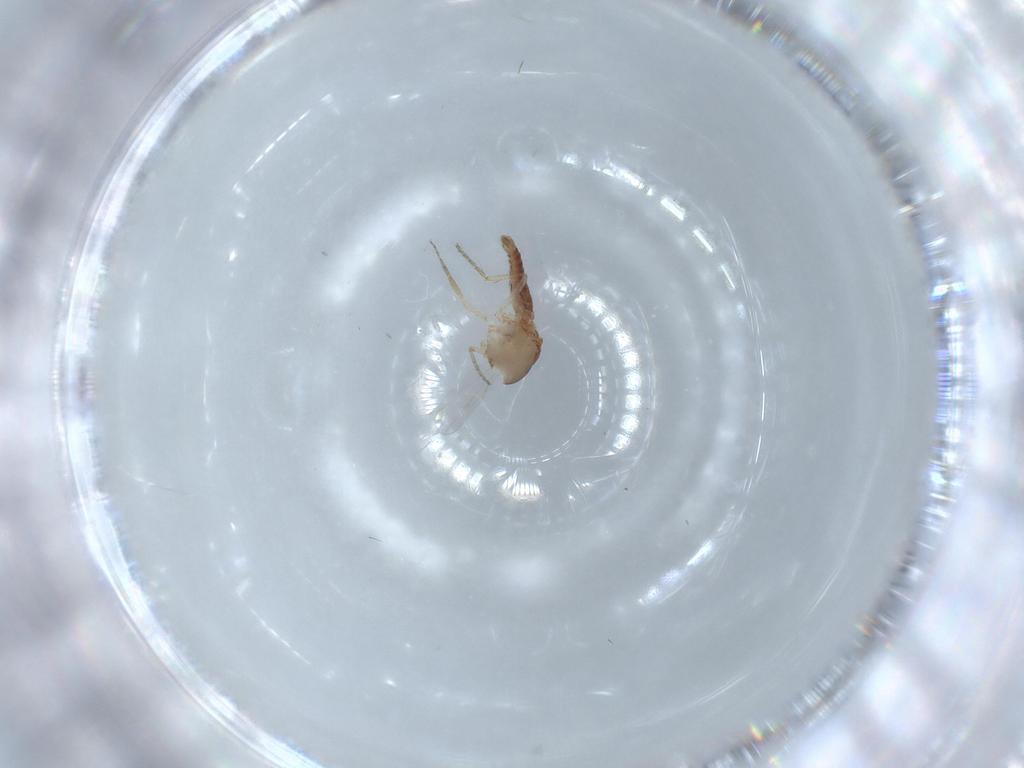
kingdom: Animalia
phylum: Arthropoda
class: Insecta
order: Diptera
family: Ceratopogonidae
